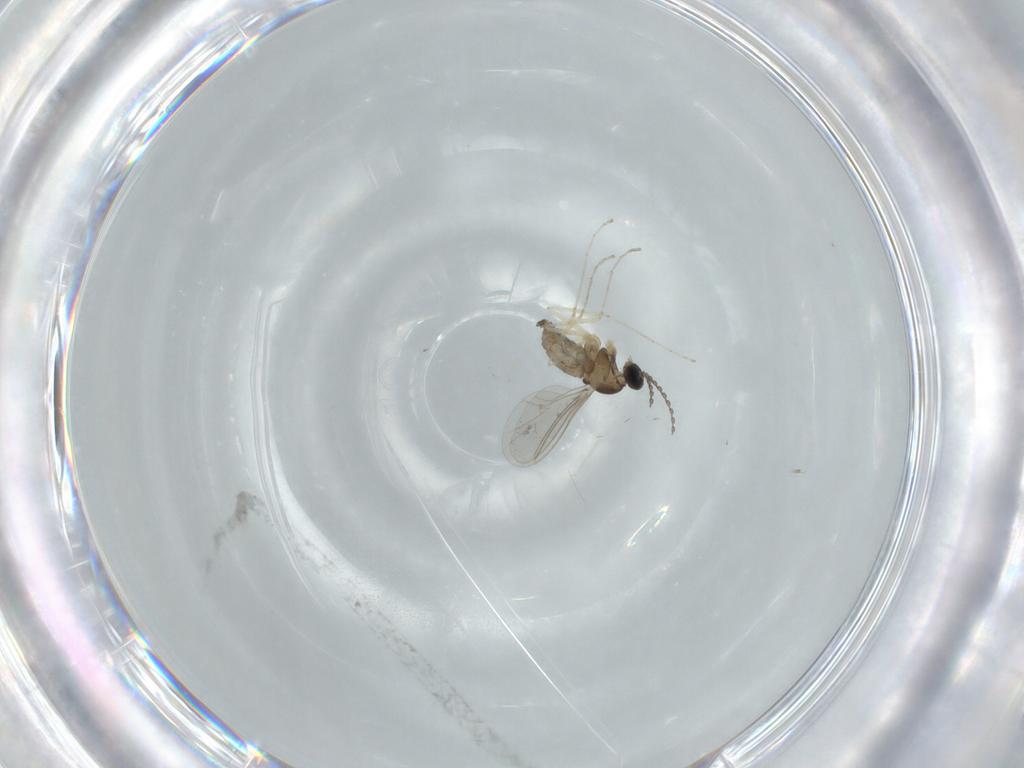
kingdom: Animalia
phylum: Arthropoda
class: Insecta
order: Diptera
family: Cecidomyiidae
